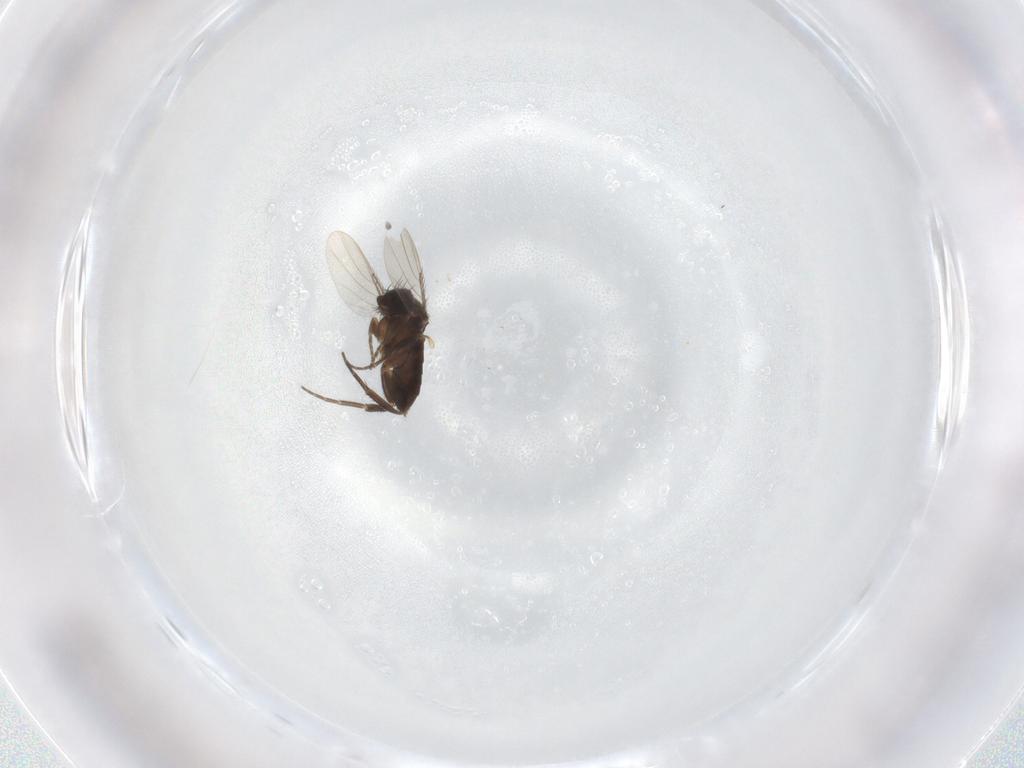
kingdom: Animalia
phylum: Arthropoda
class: Insecta
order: Diptera
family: Phoridae
